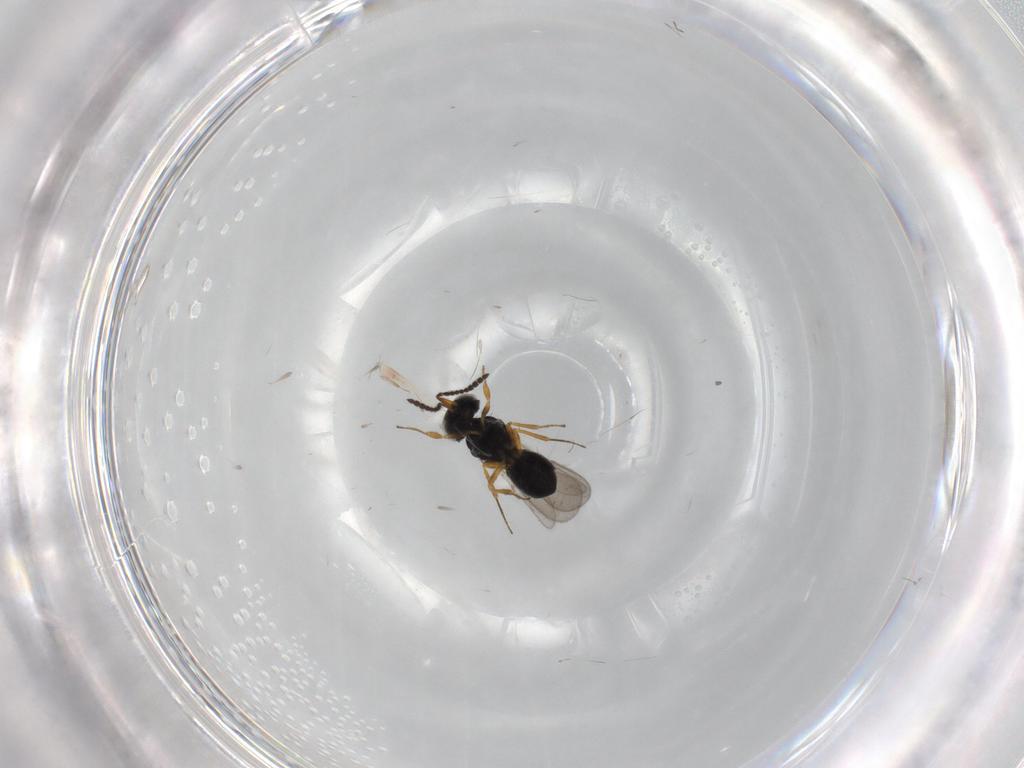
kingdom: Animalia
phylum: Arthropoda
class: Insecta
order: Hymenoptera
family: Scelionidae
